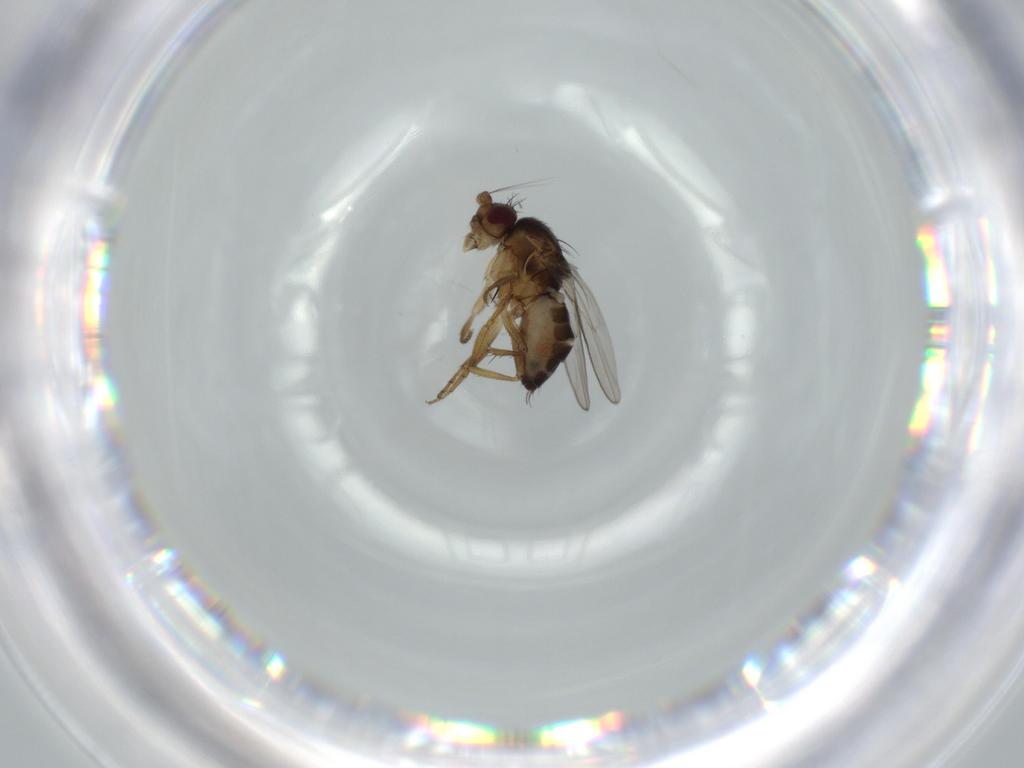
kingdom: Animalia
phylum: Arthropoda
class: Insecta
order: Diptera
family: Sphaeroceridae
